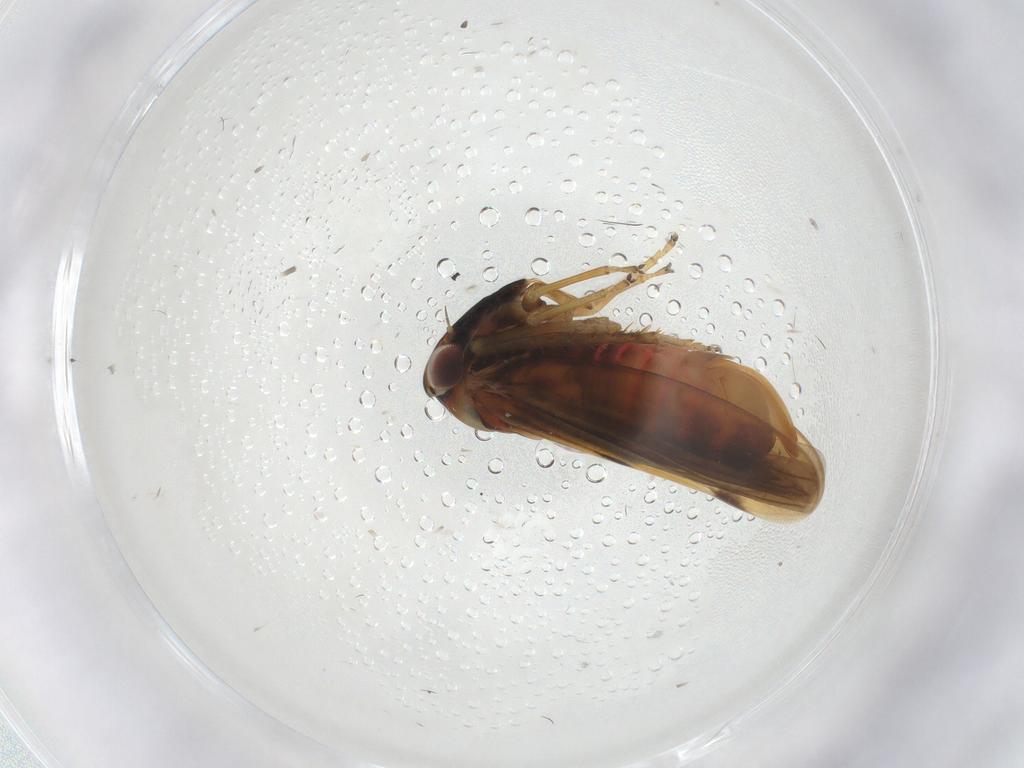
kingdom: Animalia
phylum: Arthropoda
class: Insecta
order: Hemiptera
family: Cicadellidae
